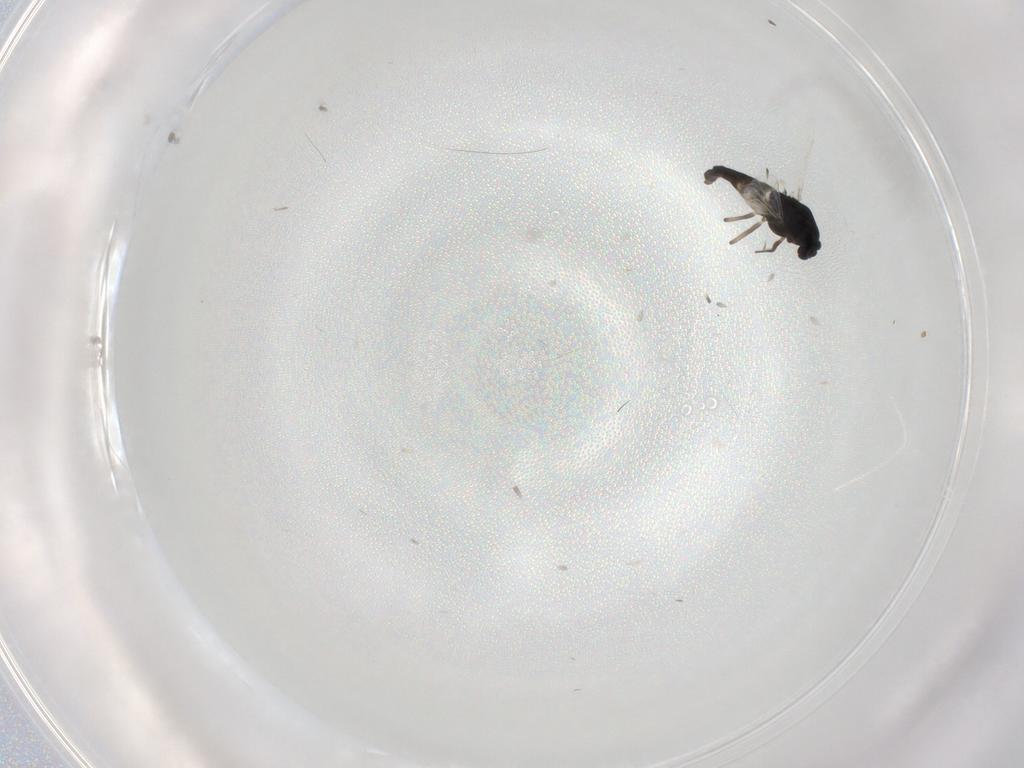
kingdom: Animalia
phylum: Arthropoda
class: Insecta
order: Diptera
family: Chironomidae
